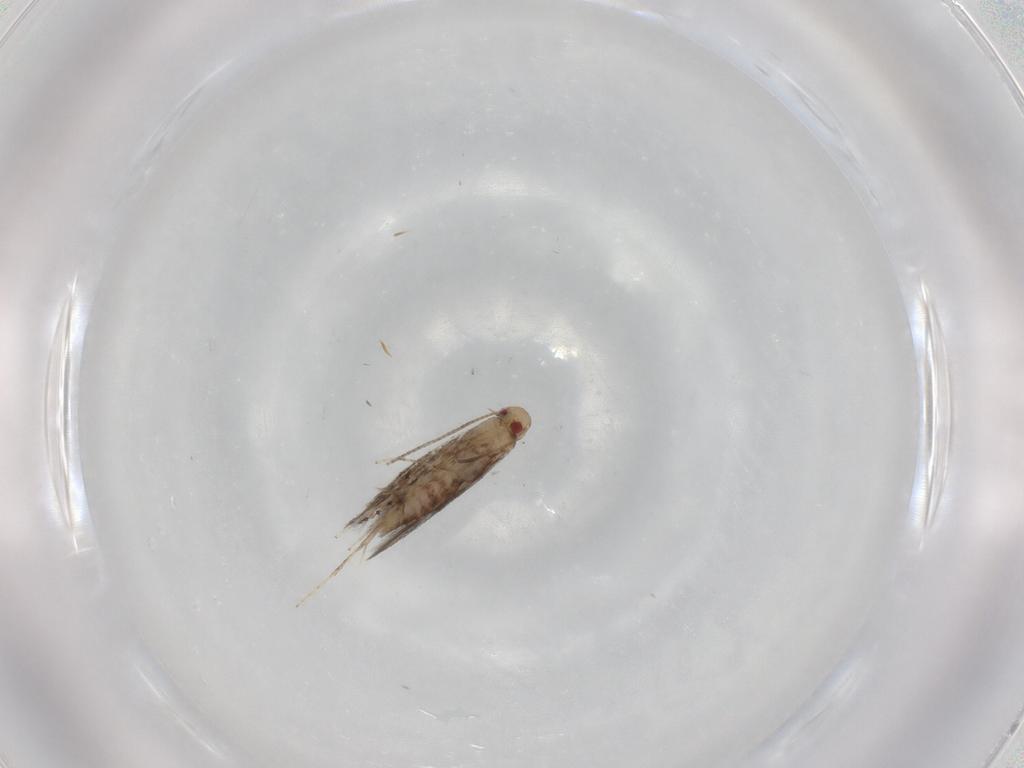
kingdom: Animalia
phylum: Arthropoda
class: Insecta
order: Lepidoptera
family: Gracillariidae
